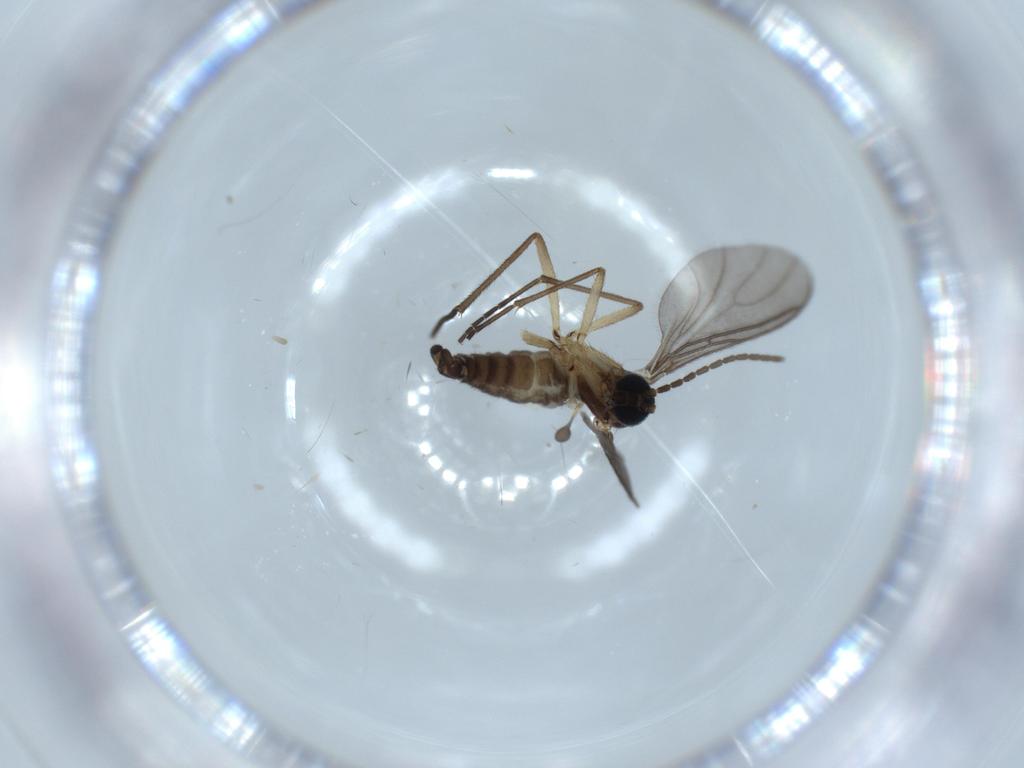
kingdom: Animalia
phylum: Arthropoda
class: Insecta
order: Diptera
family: Sciaridae
